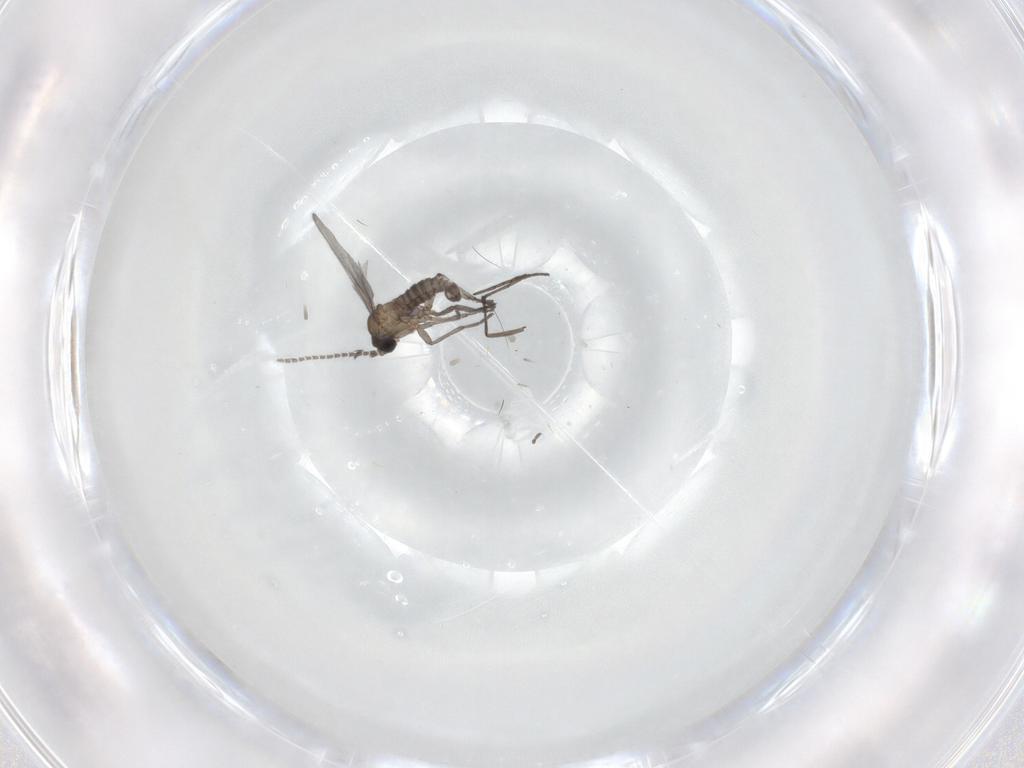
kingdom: Animalia
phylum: Arthropoda
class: Insecta
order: Diptera
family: Sciaridae
